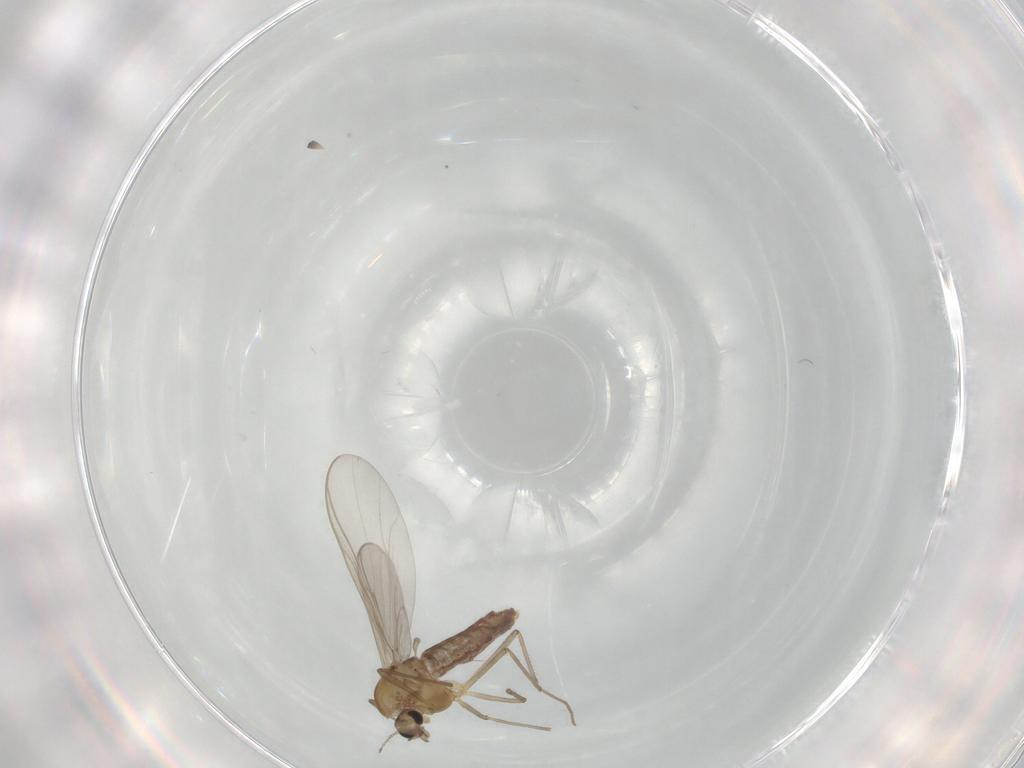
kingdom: Animalia
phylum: Arthropoda
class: Insecta
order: Diptera
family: Chironomidae
